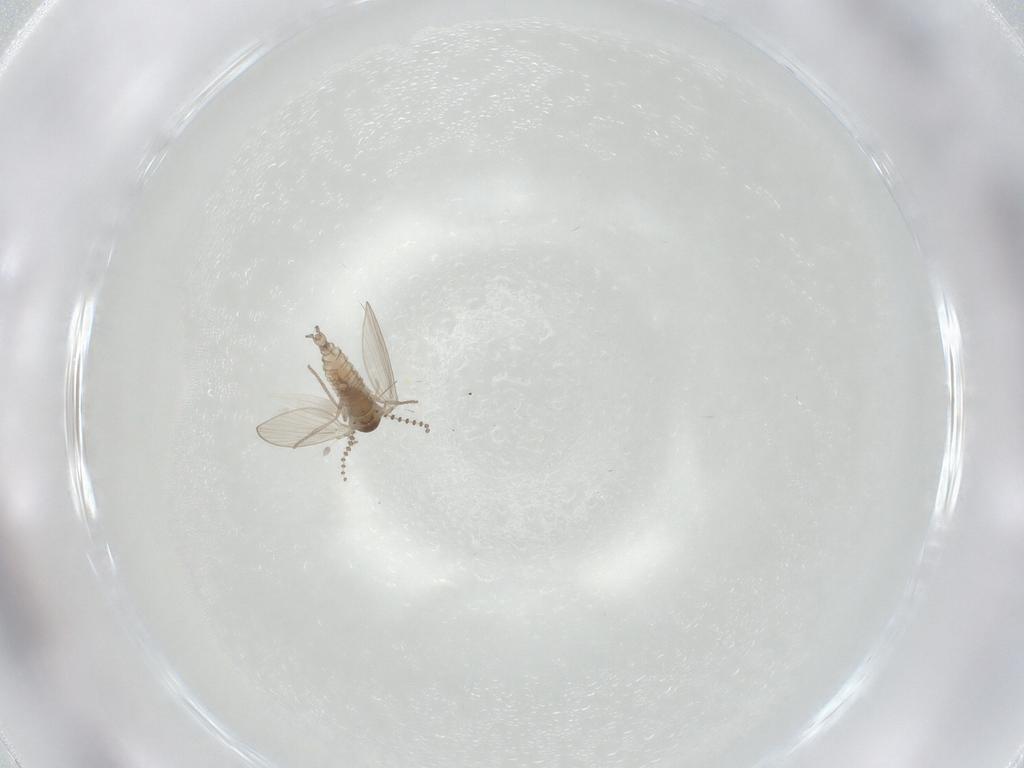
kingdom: Animalia
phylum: Arthropoda
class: Insecta
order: Diptera
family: Psychodidae
